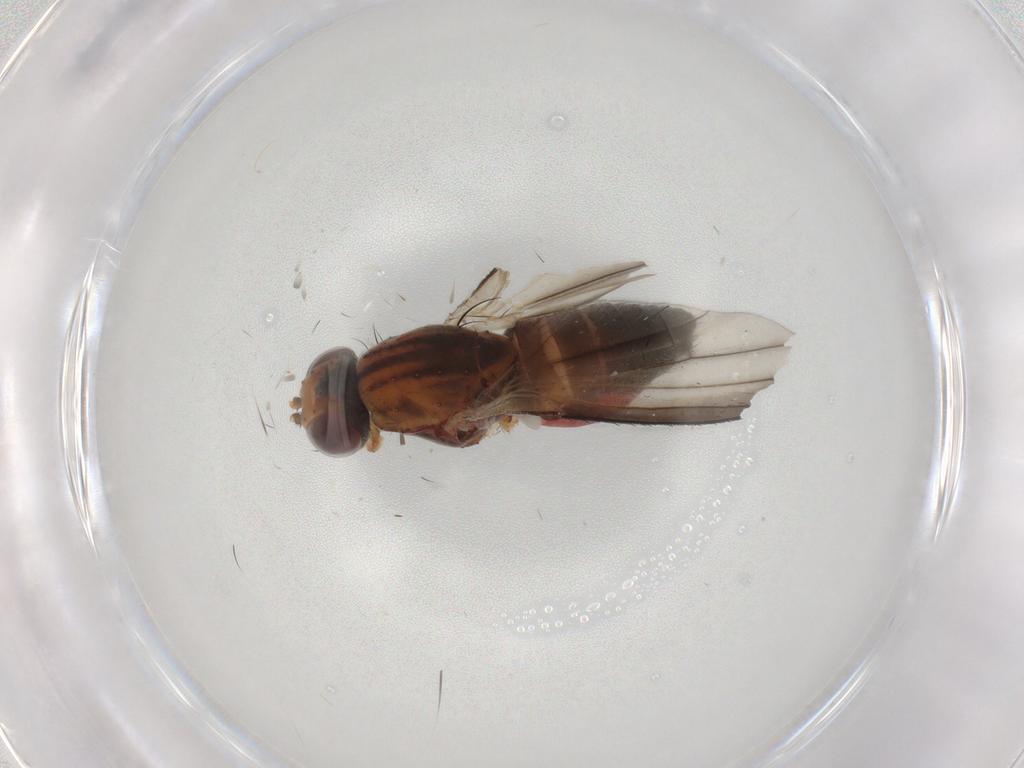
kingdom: Animalia
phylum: Arthropoda
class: Insecta
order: Diptera
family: Heleomyzidae
